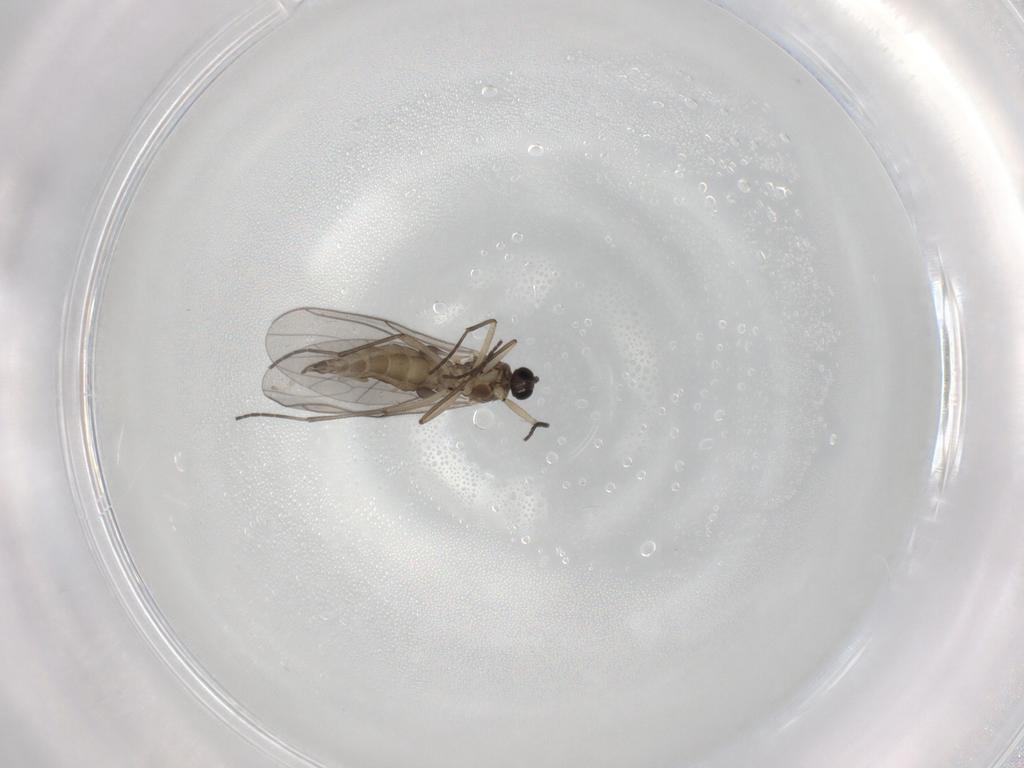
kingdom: Animalia
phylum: Arthropoda
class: Insecta
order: Diptera
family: Sciaridae
